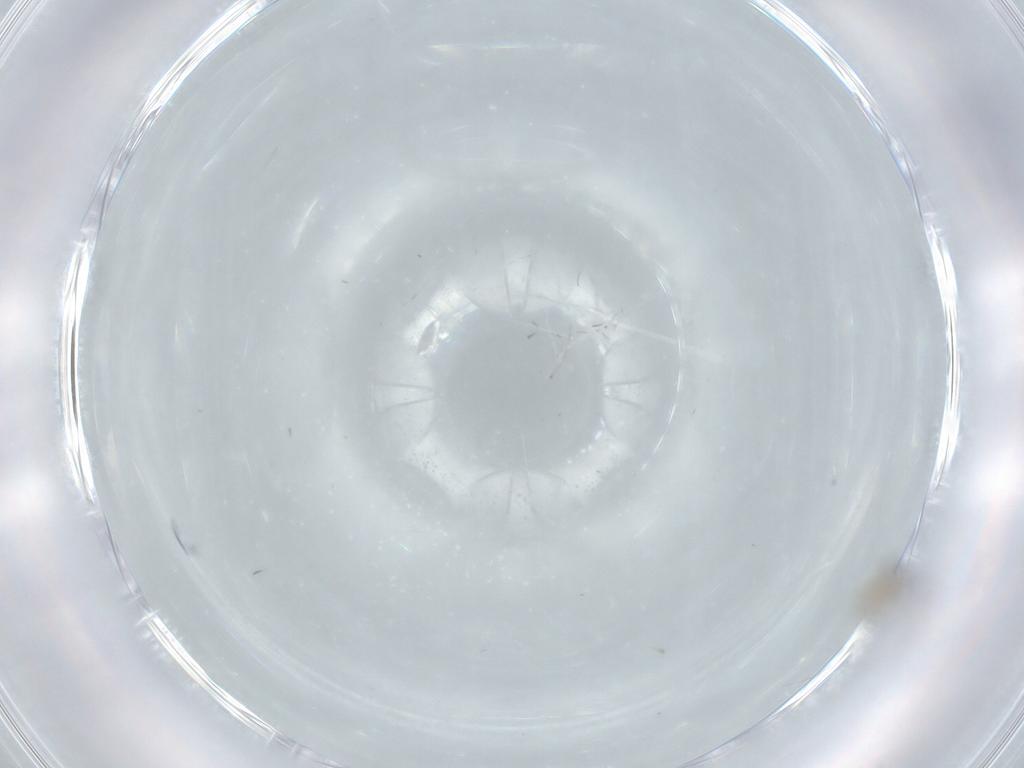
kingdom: Animalia
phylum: Arthropoda
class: Insecta
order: Diptera
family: Cecidomyiidae
